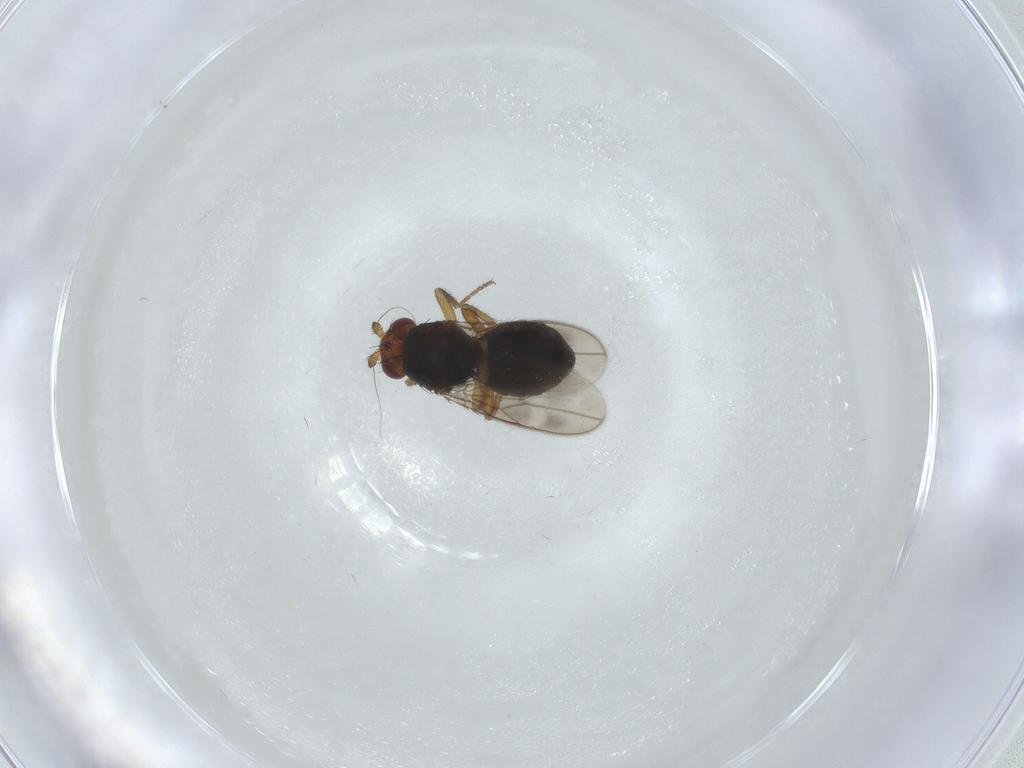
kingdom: Animalia
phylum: Arthropoda
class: Insecta
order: Diptera
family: Sphaeroceridae
